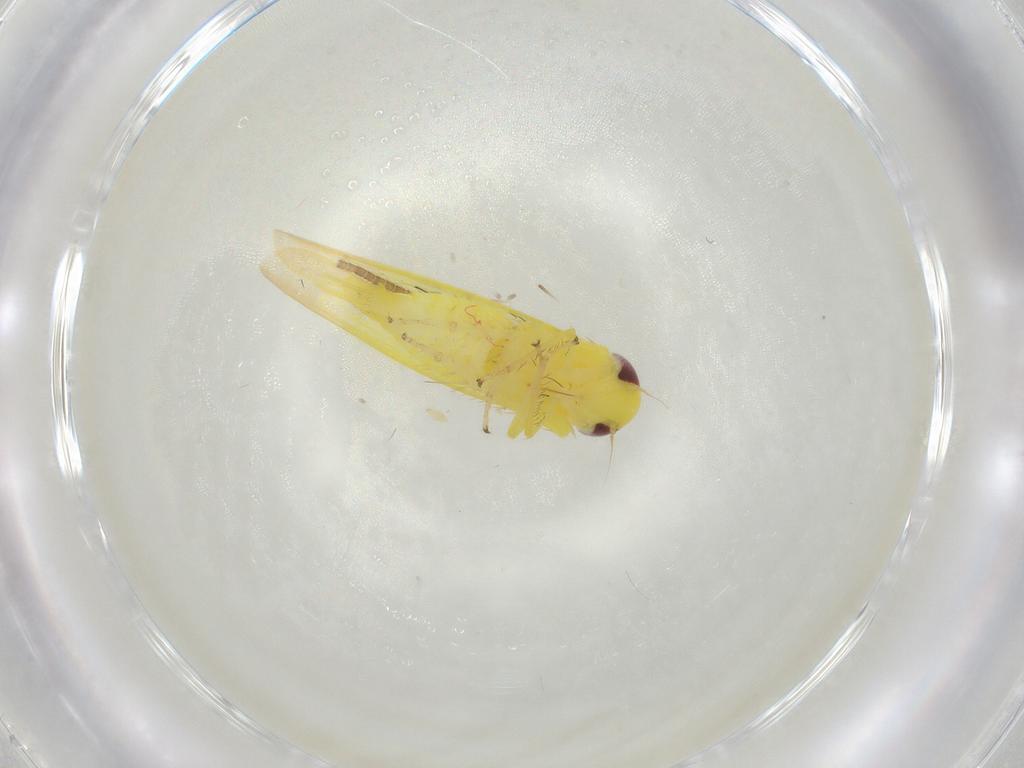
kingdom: Animalia
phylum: Arthropoda
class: Insecta
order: Hemiptera
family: Cicadellidae
